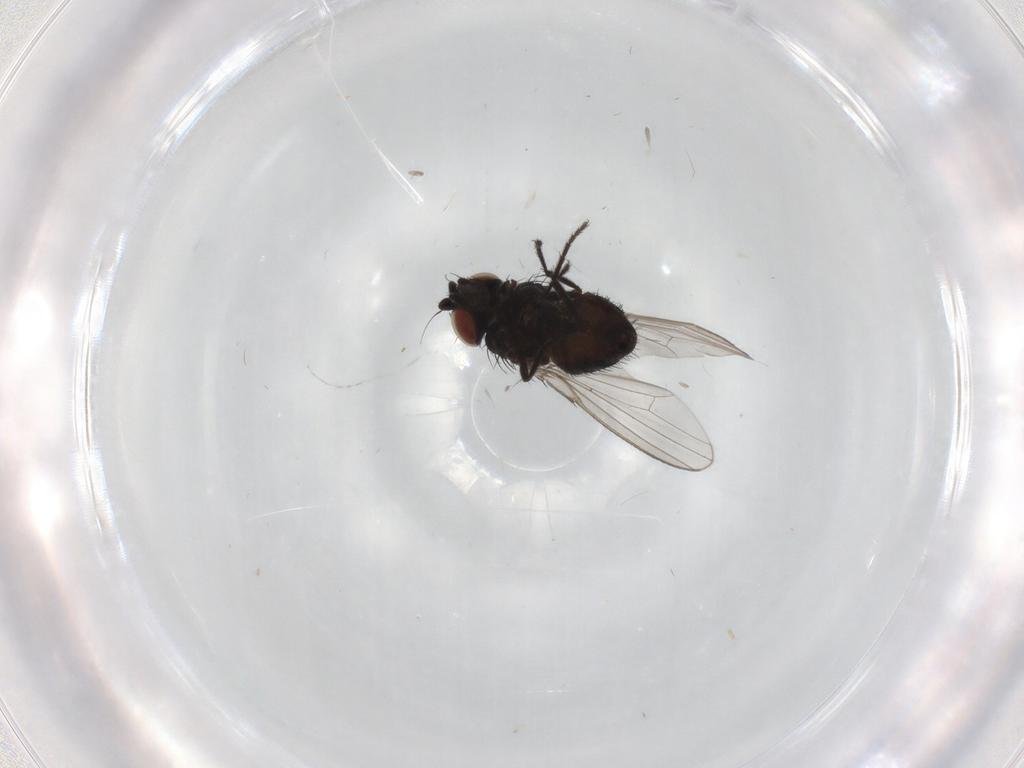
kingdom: Animalia
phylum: Arthropoda
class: Insecta
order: Diptera
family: Milichiidae
